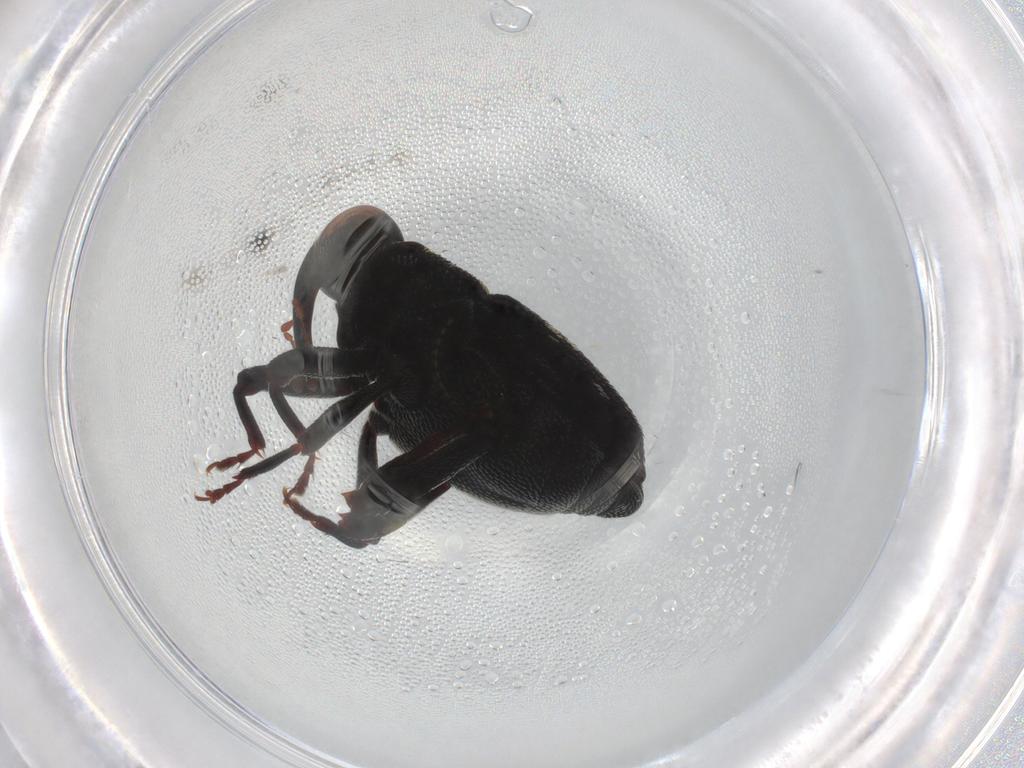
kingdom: Animalia
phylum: Arthropoda
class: Insecta
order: Coleoptera
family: Curculionidae
